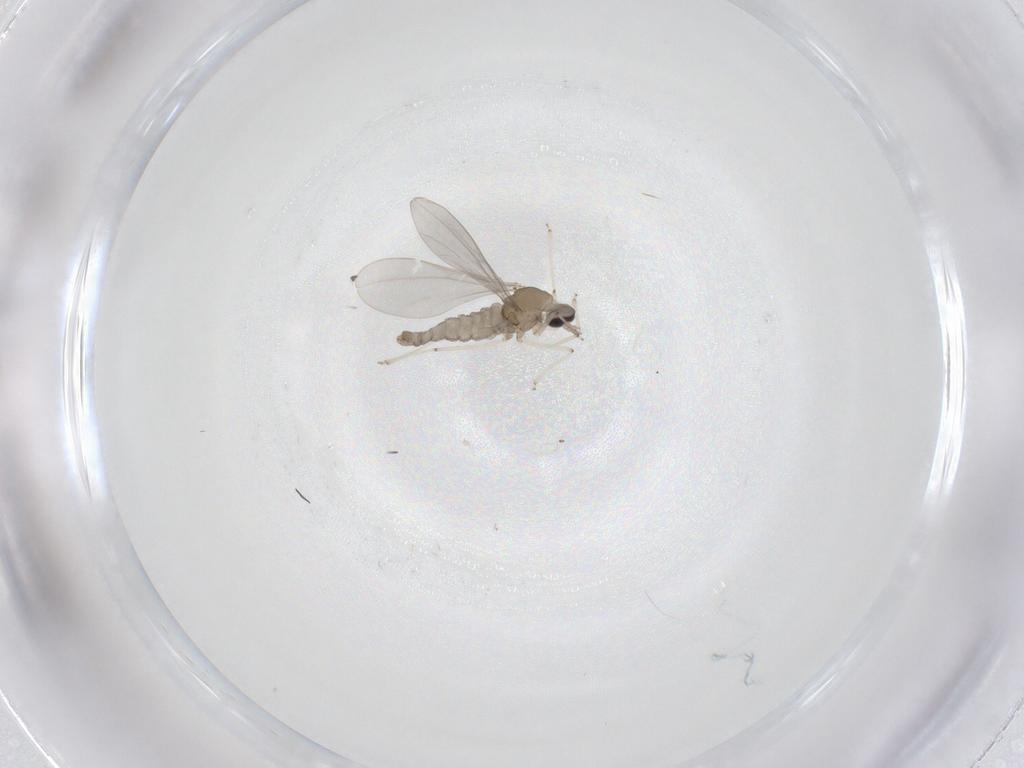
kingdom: Animalia
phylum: Arthropoda
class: Insecta
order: Diptera
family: Cecidomyiidae
